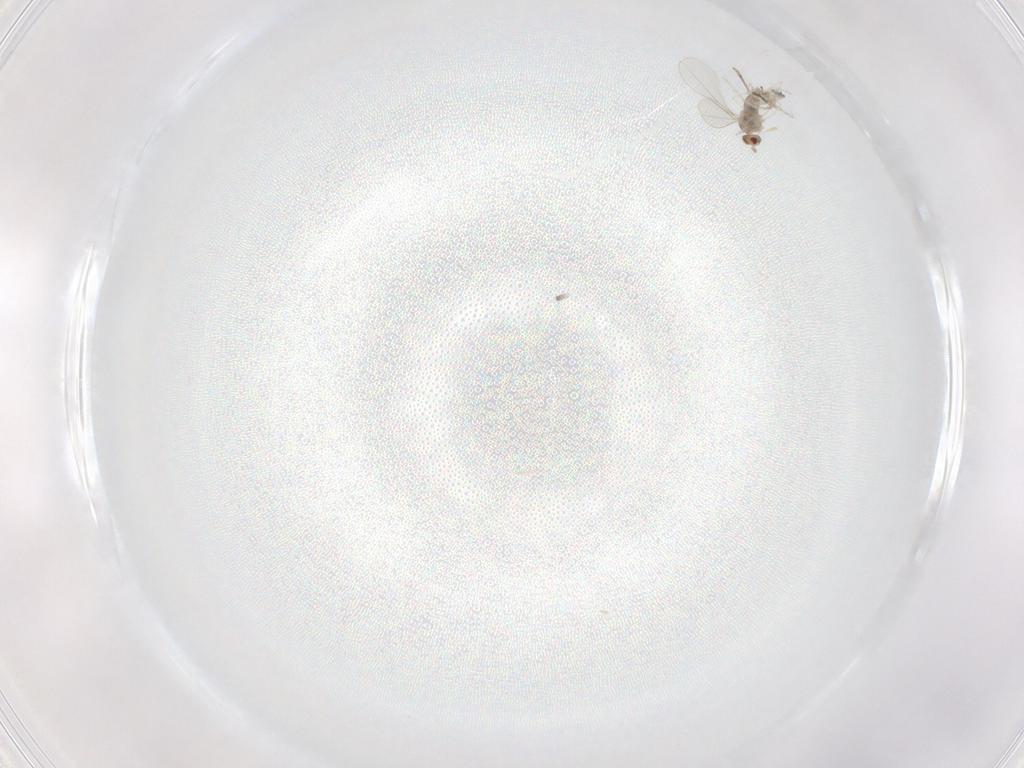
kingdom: Animalia
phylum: Arthropoda
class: Insecta
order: Diptera
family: Cecidomyiidae
